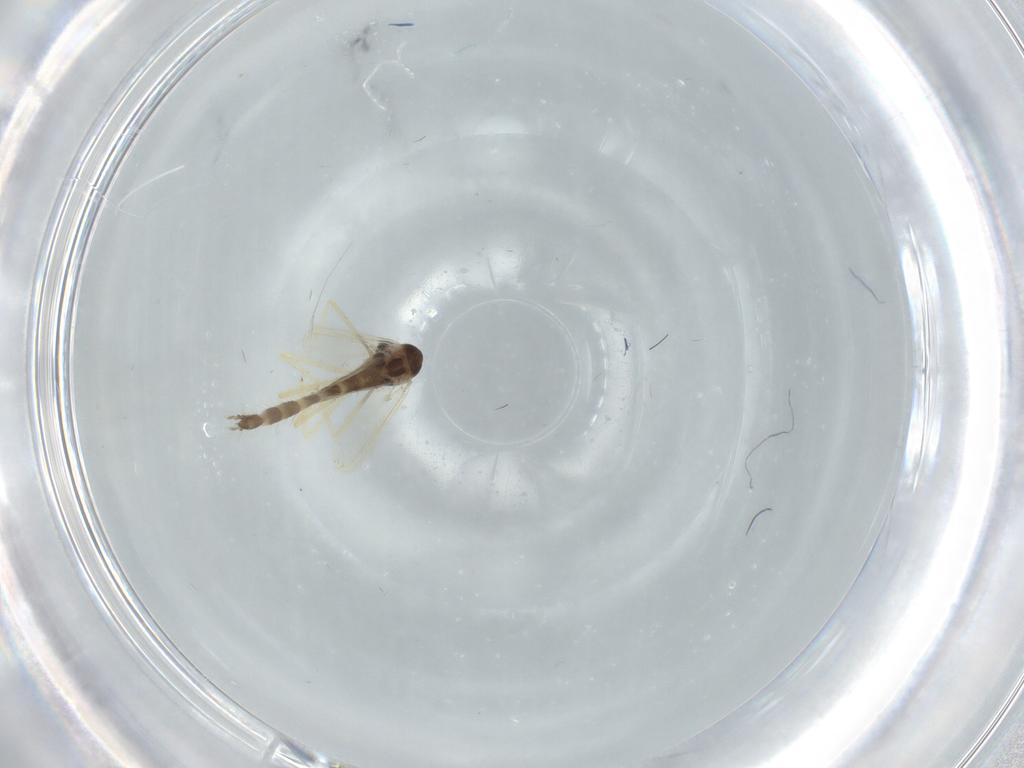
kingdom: Animalia
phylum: Arthropoda
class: Insecta
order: Diptera
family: Chironomidae
